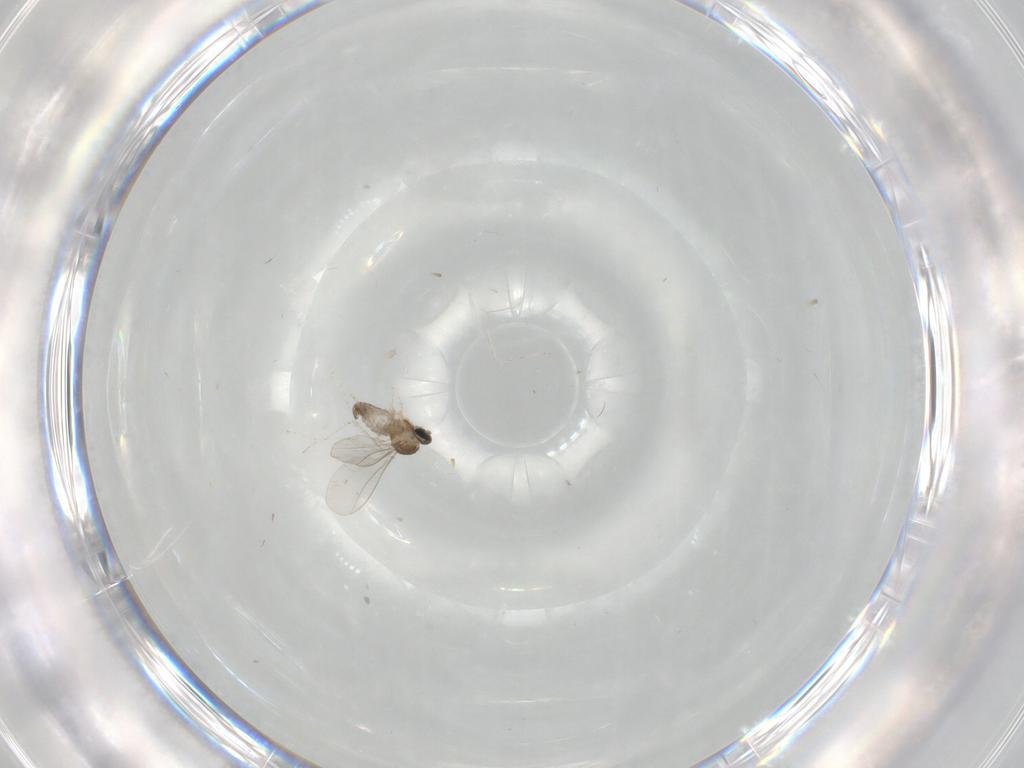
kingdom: Animalia
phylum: Arthropoda
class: Insecta
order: Diptera
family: Cecidomyiidae
